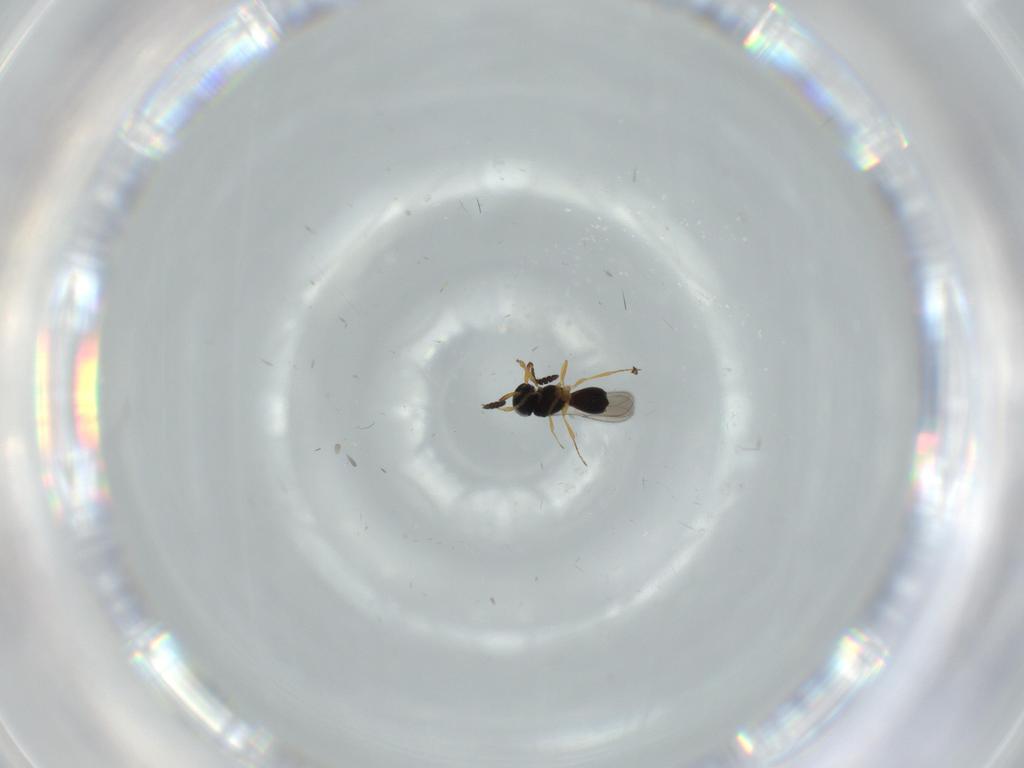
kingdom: Animalia
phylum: Arthropoda
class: Insecta
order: Hymenoptera
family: Scelionidae
